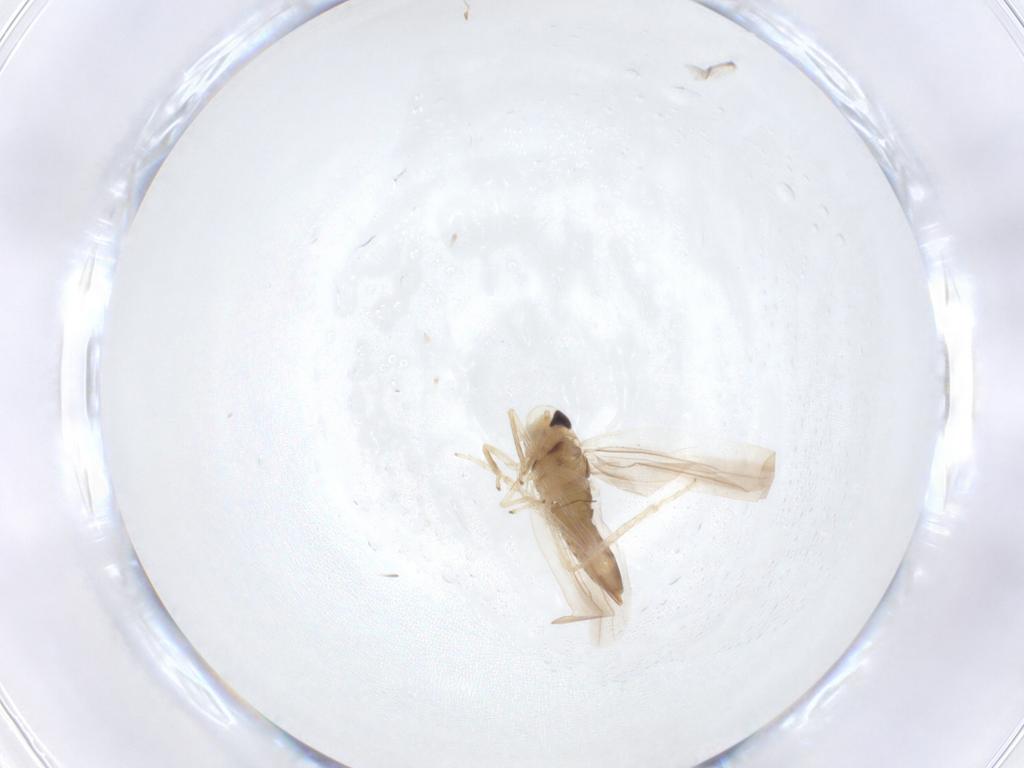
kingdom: Animalia
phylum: Arthropoda
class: Insecta
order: Hemiptera
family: Cicadellidae
